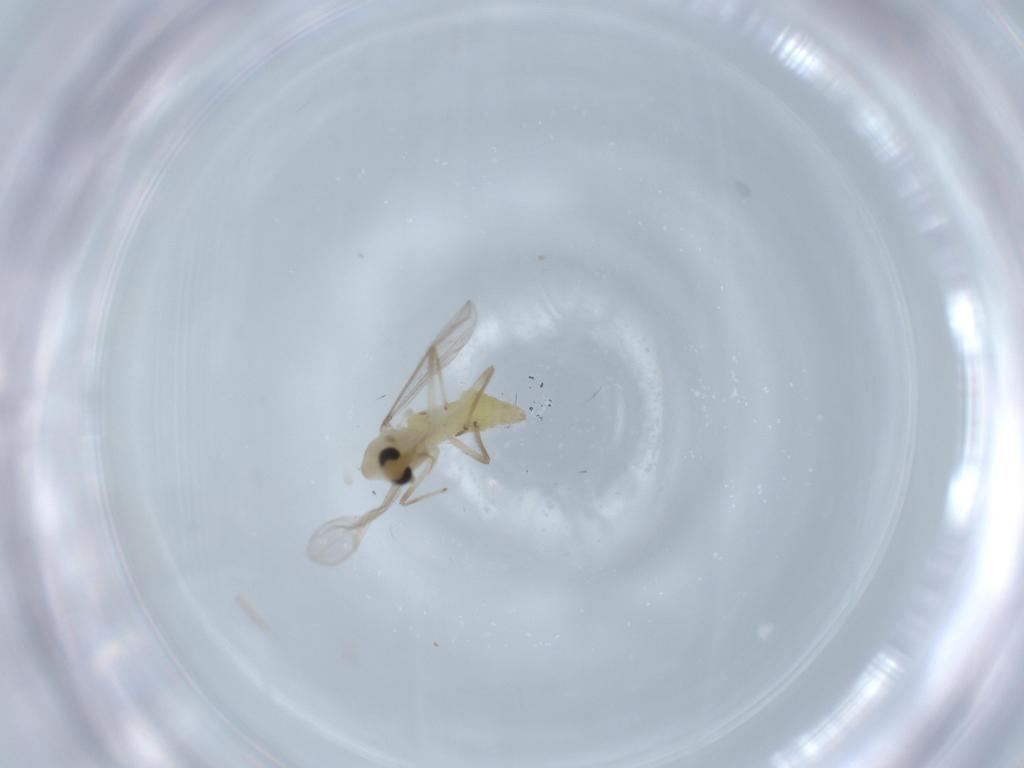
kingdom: Animalia
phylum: Arthropoda
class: Insecta
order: Diptera
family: Chironomidae
